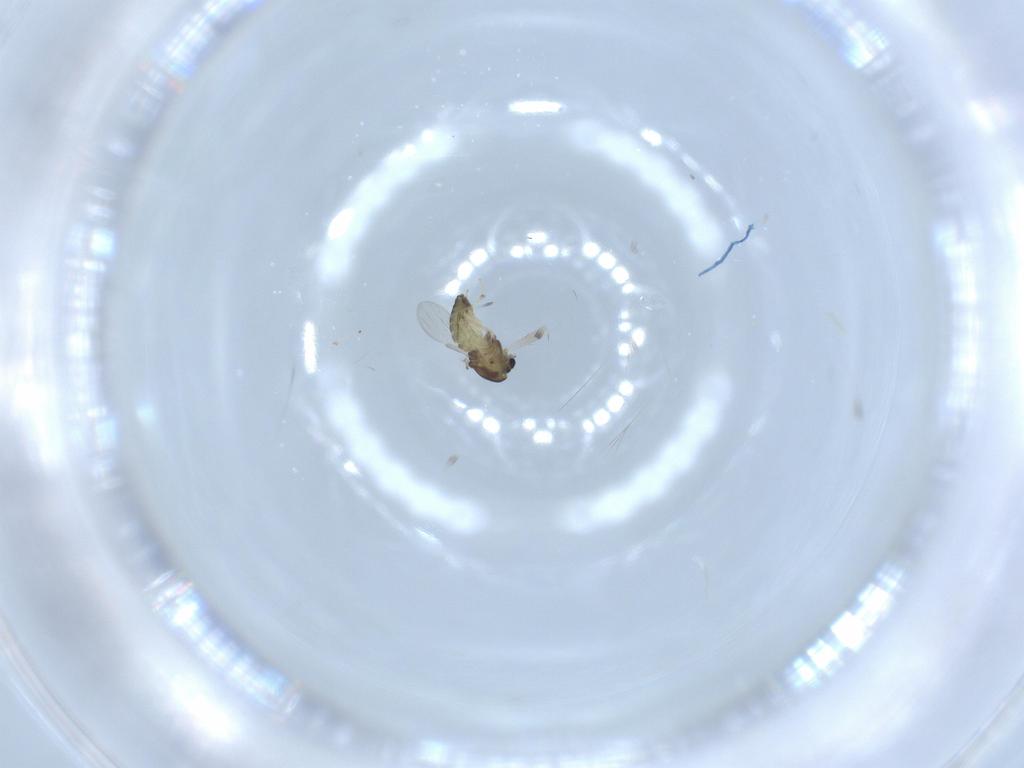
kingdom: Animalia
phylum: Arthropoda
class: Insecta
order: Diptera
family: Chironomidae
